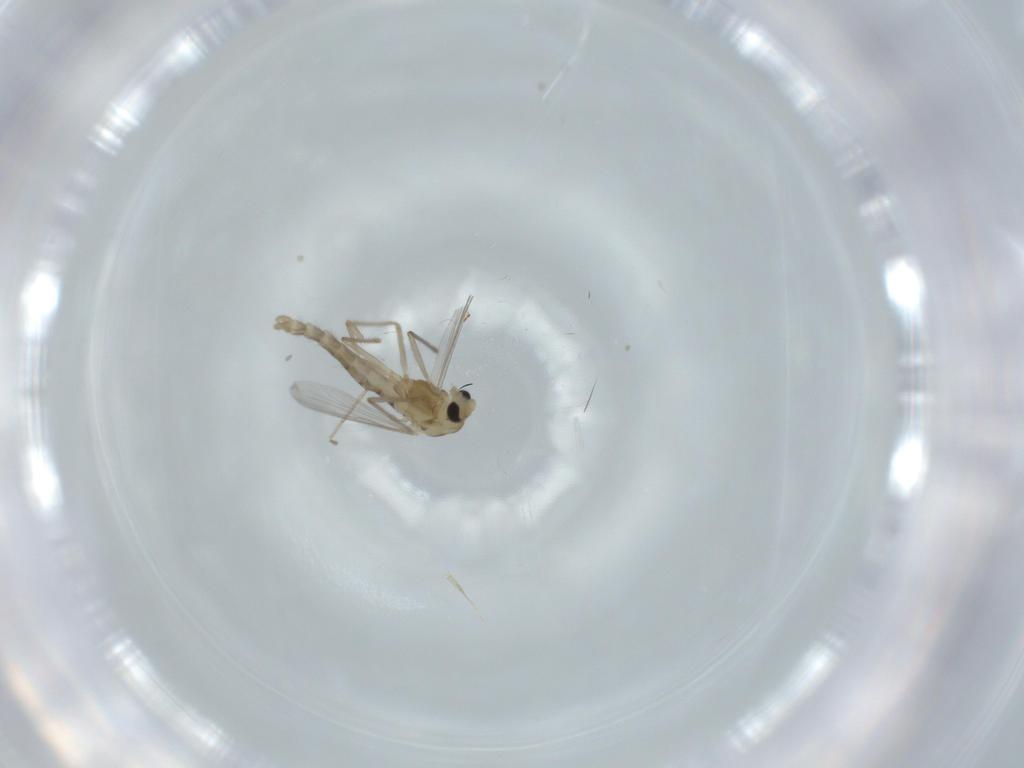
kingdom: Animalia
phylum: Arthropoda
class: Insecta
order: Diptera
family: Chironomidae
